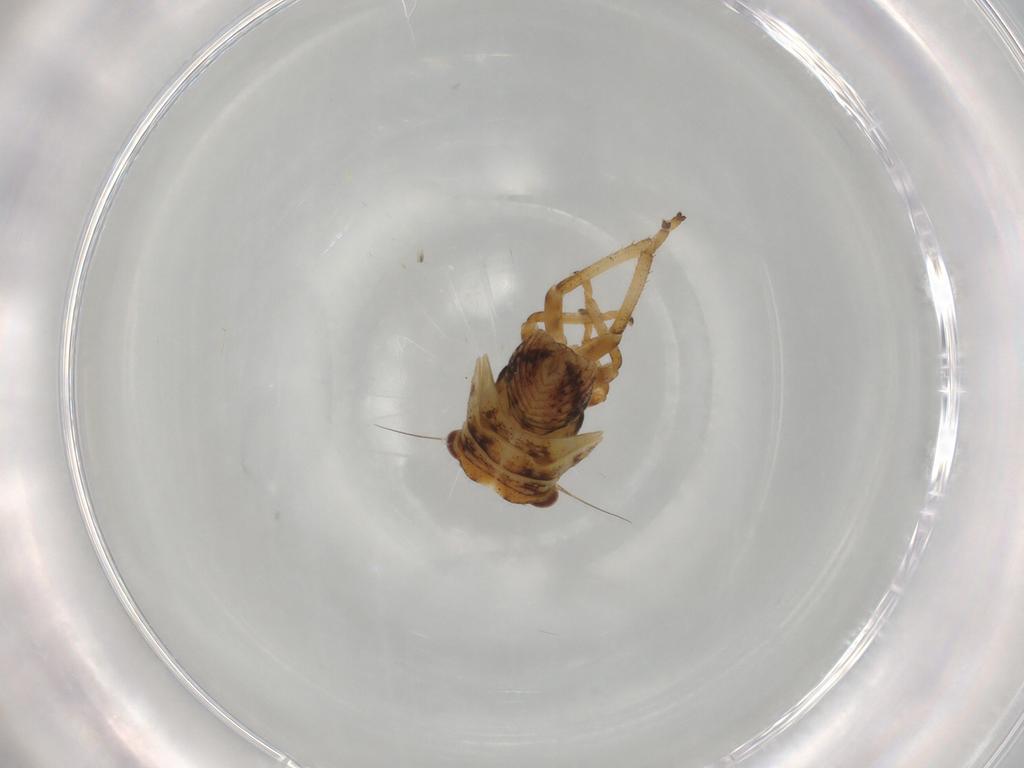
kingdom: Animalia
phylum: Arthropoda
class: Insecta
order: Hemiptera
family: Cicadellidae
